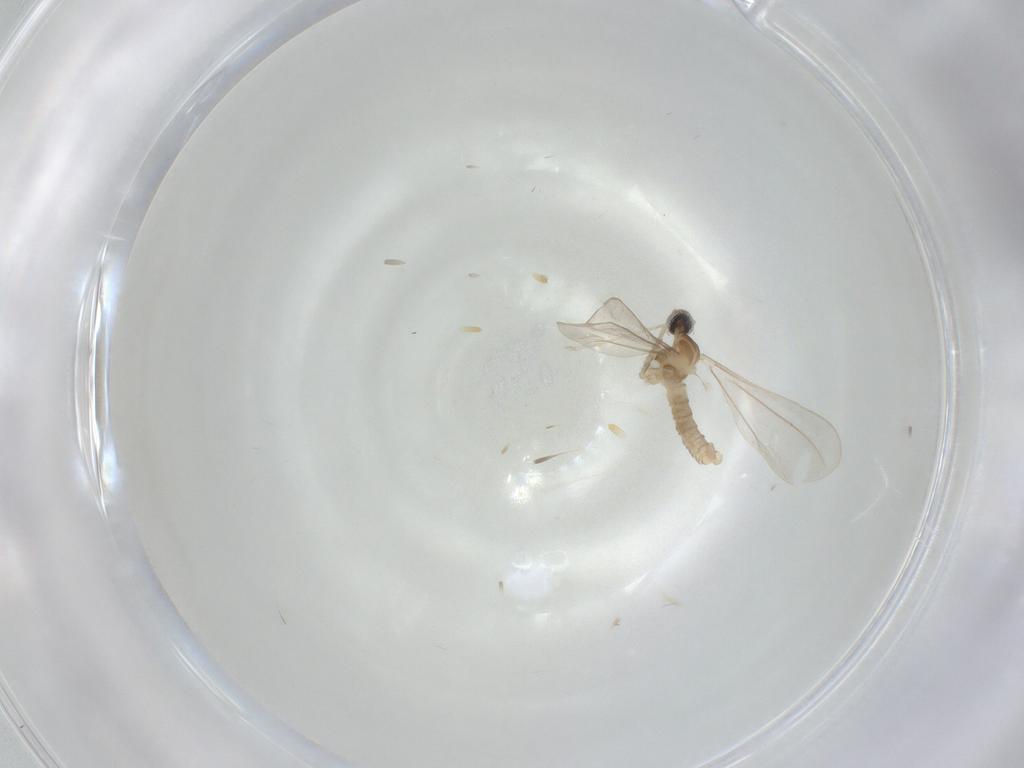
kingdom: Animalia
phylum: Arthropoda
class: Insecta
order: Diptera
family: Cecidomyiidae
